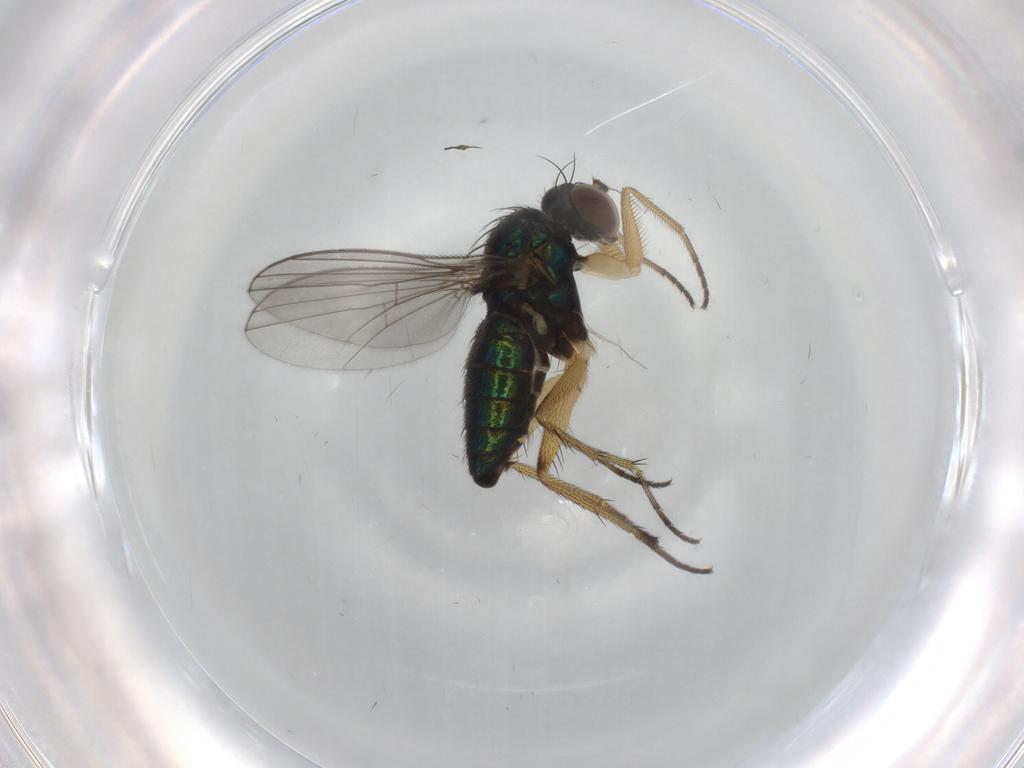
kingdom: Animalia
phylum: Arthropoda
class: Insecta
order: Diptera
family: Dolichopodidae
